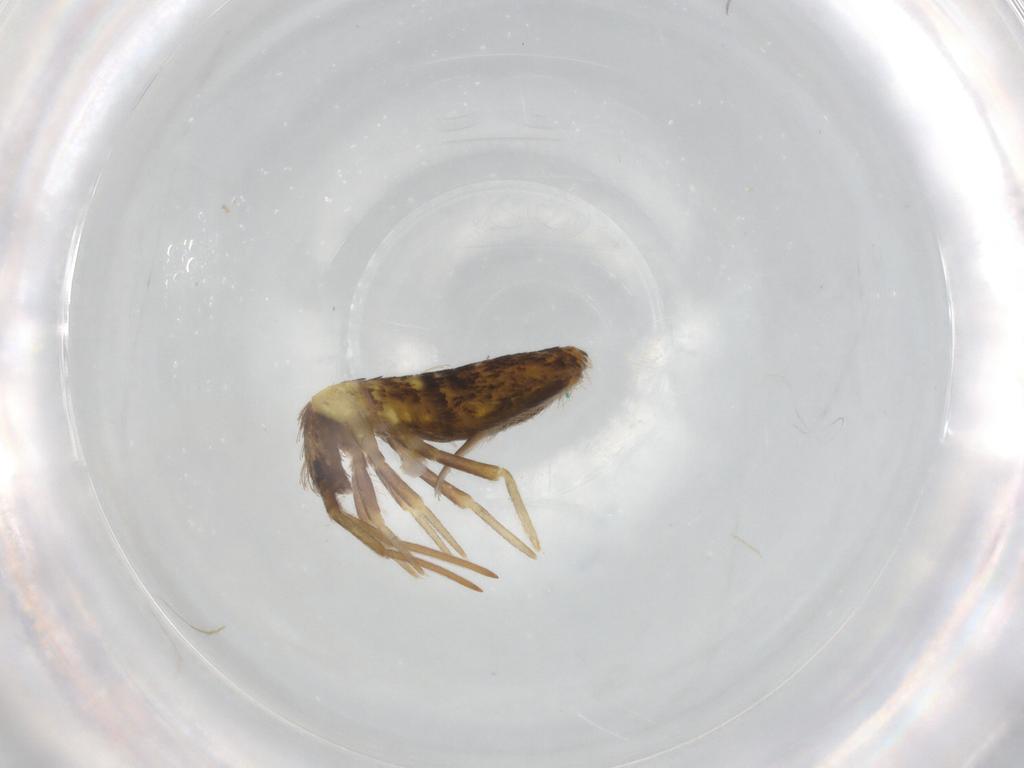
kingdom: Animalia
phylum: Arthropoda
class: Collembola
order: Entomobryomorpha
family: Entomobryidae
